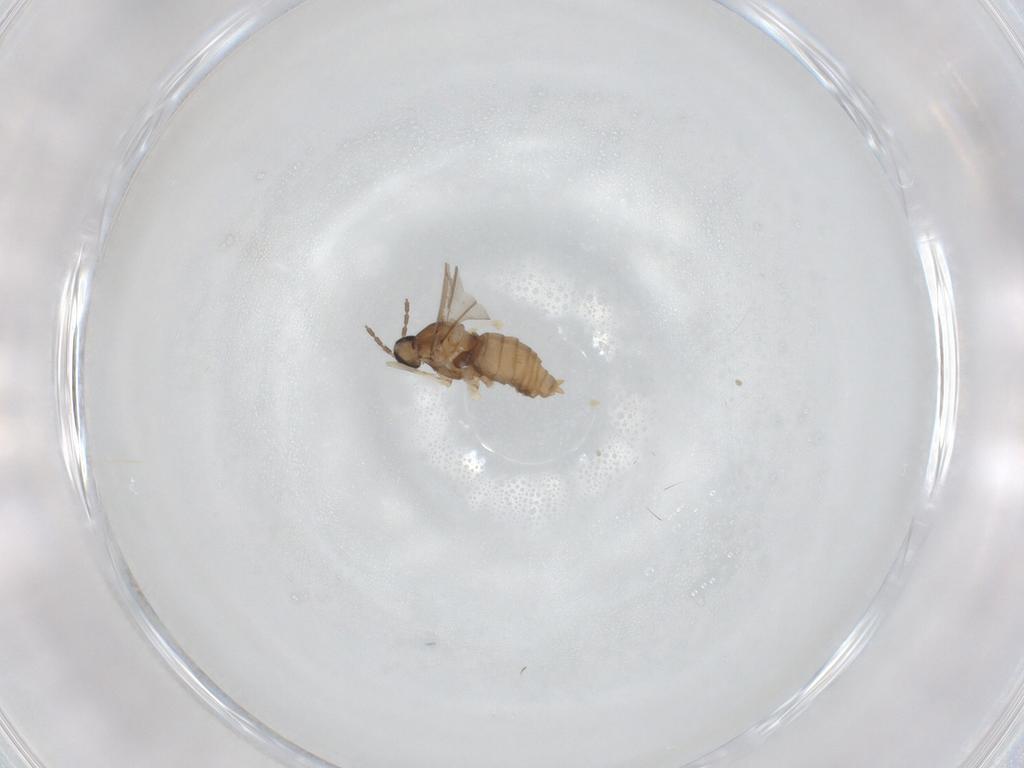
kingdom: Animalia
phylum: Arthropoda
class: Insecta
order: Diptera
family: Cecidomyiidae
